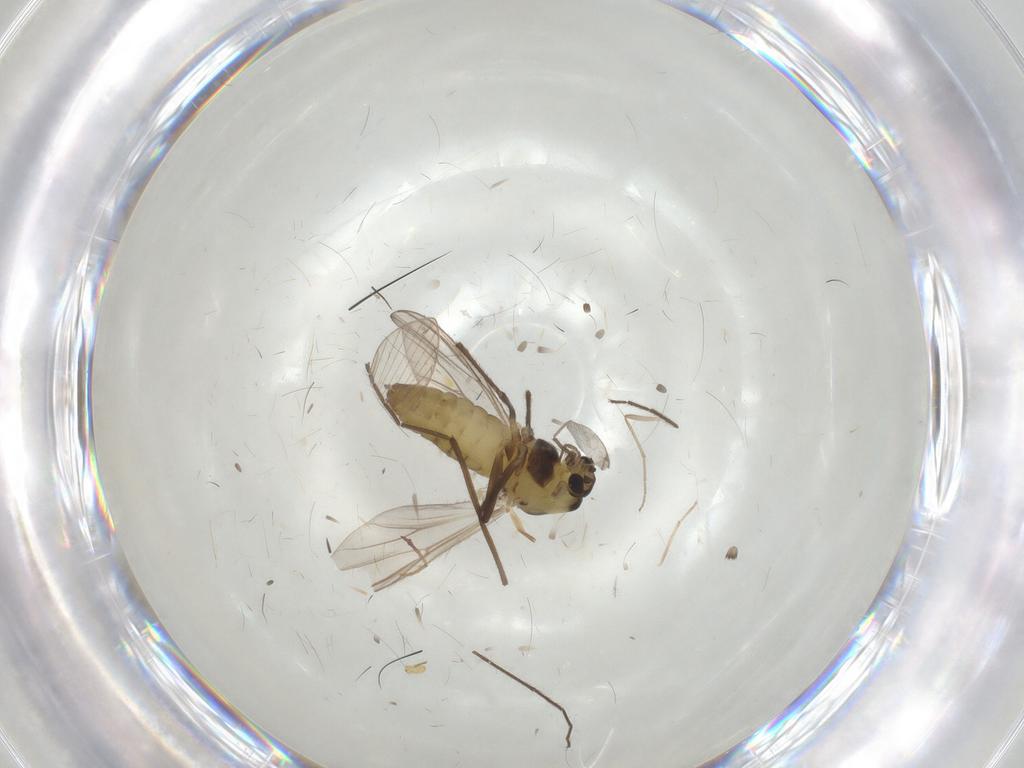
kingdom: Animalia
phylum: Arthropoda
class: Insecta
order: Diptera
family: Chironomidae
